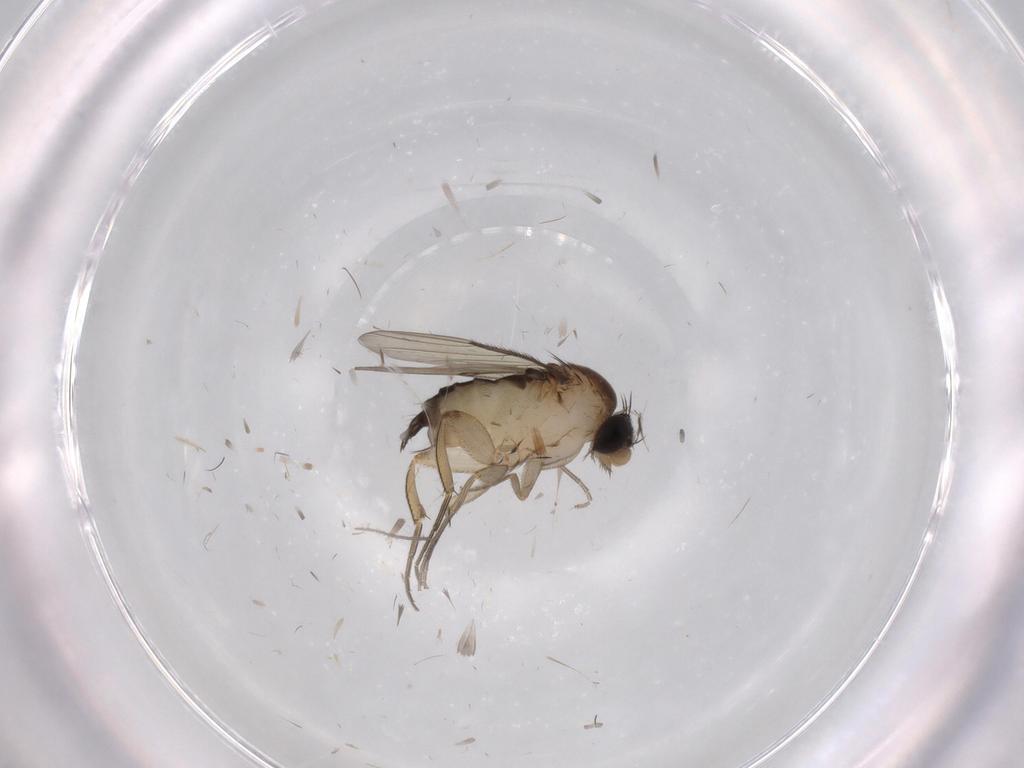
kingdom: Animalia
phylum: Arthropoda
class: Insecta
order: Diptera
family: Phoridae
